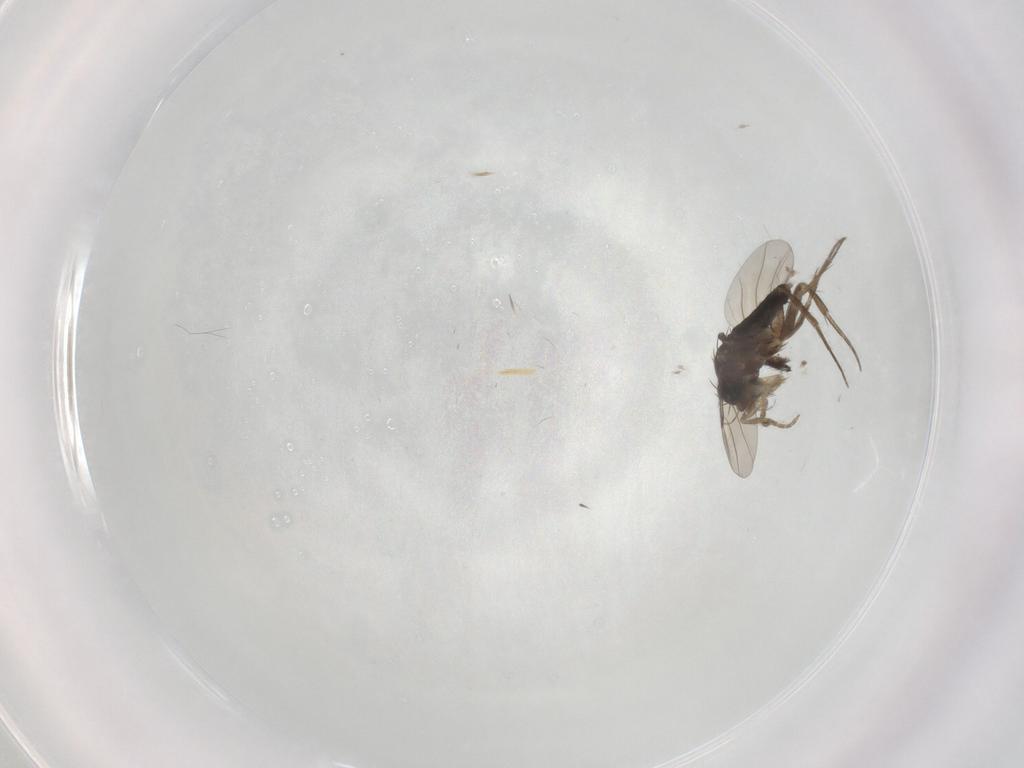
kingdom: Animalia
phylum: Arthropoda
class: Insecta
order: Diptera
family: Phoridae
